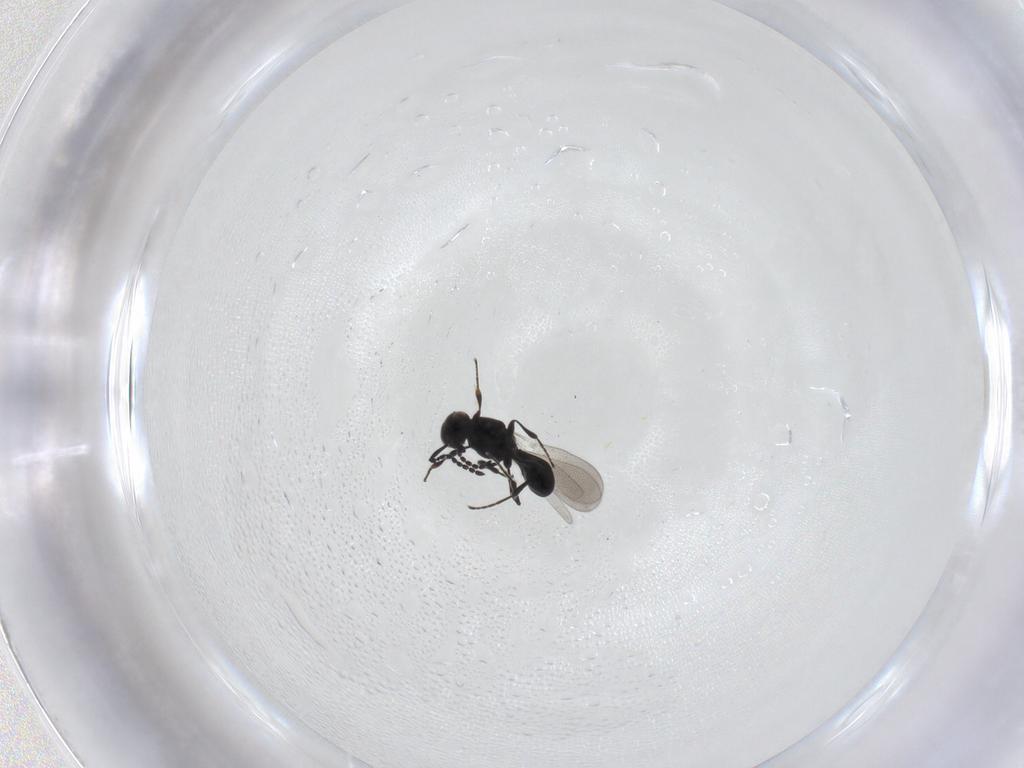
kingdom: Animalia
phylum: Arthropoda
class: Insecta
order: Hymenoptera
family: Platygastridae
